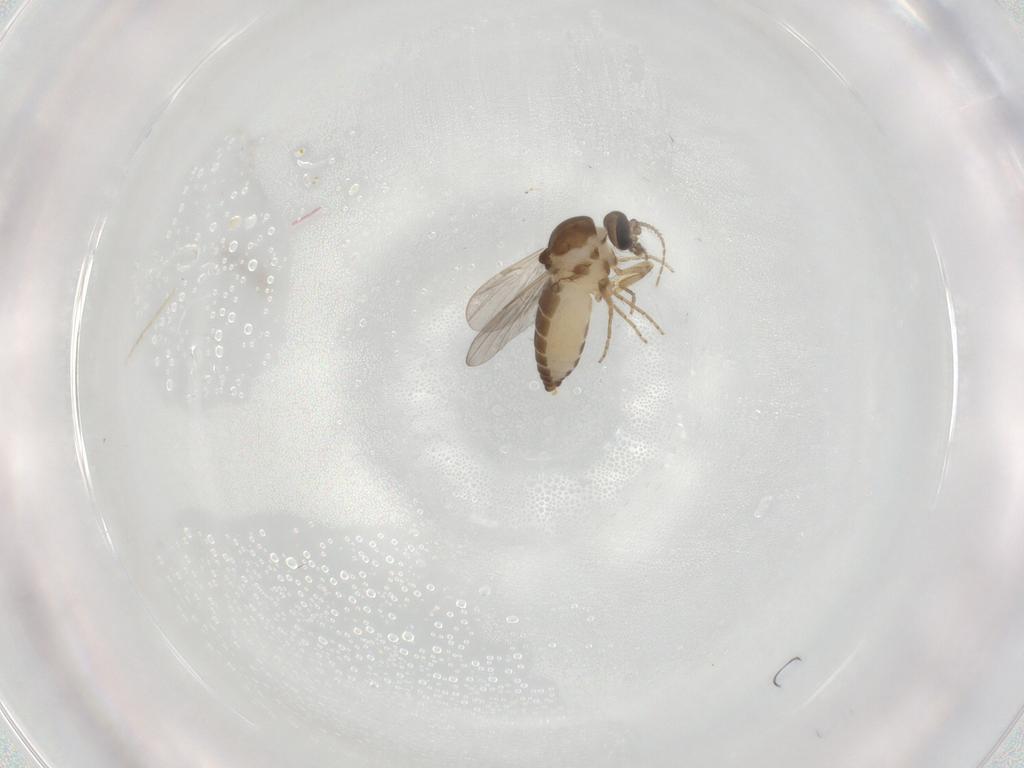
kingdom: Animalia
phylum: Arthropoda
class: Insecta
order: Diptera
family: Ceratopogonidae
